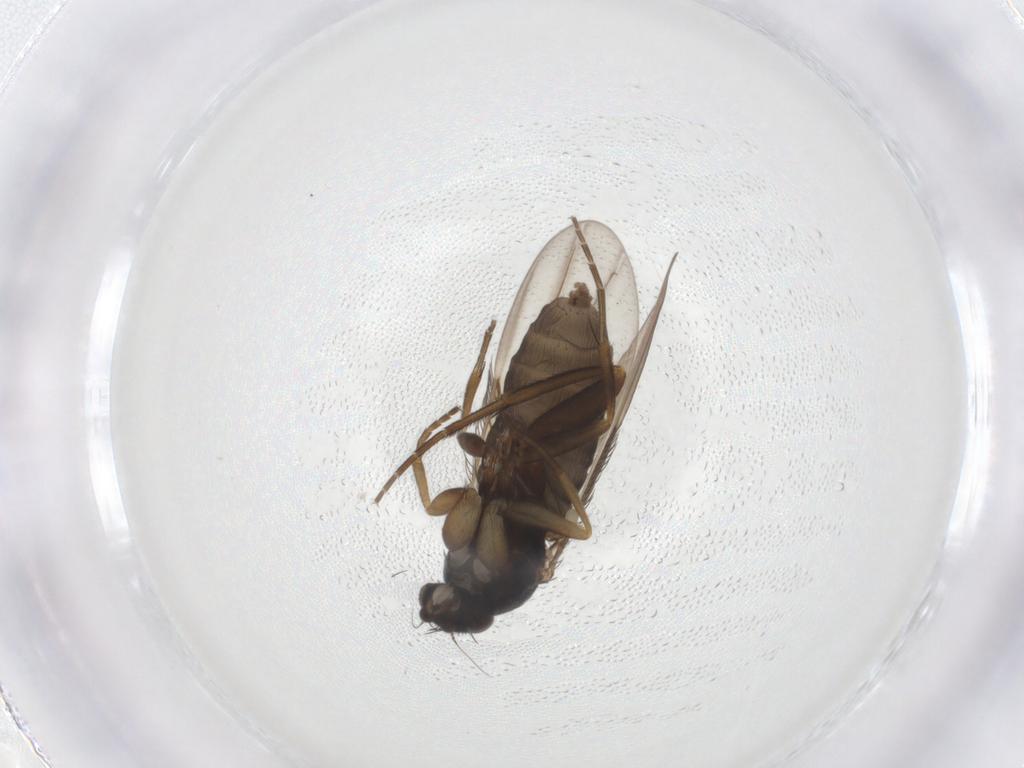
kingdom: Animalia
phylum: Arthropoda
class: Insecta
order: Diptera
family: Phoridae
